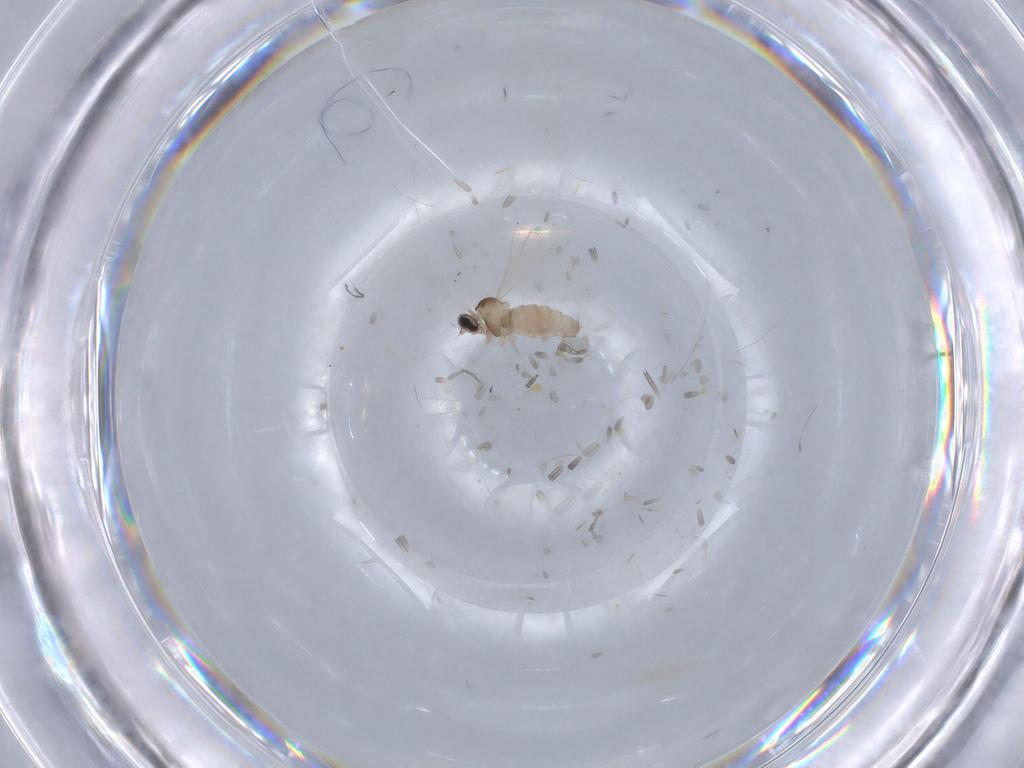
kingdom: Animalia
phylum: Arthropoda
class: Insecta
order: Diptera
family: Cecidomyiidae
